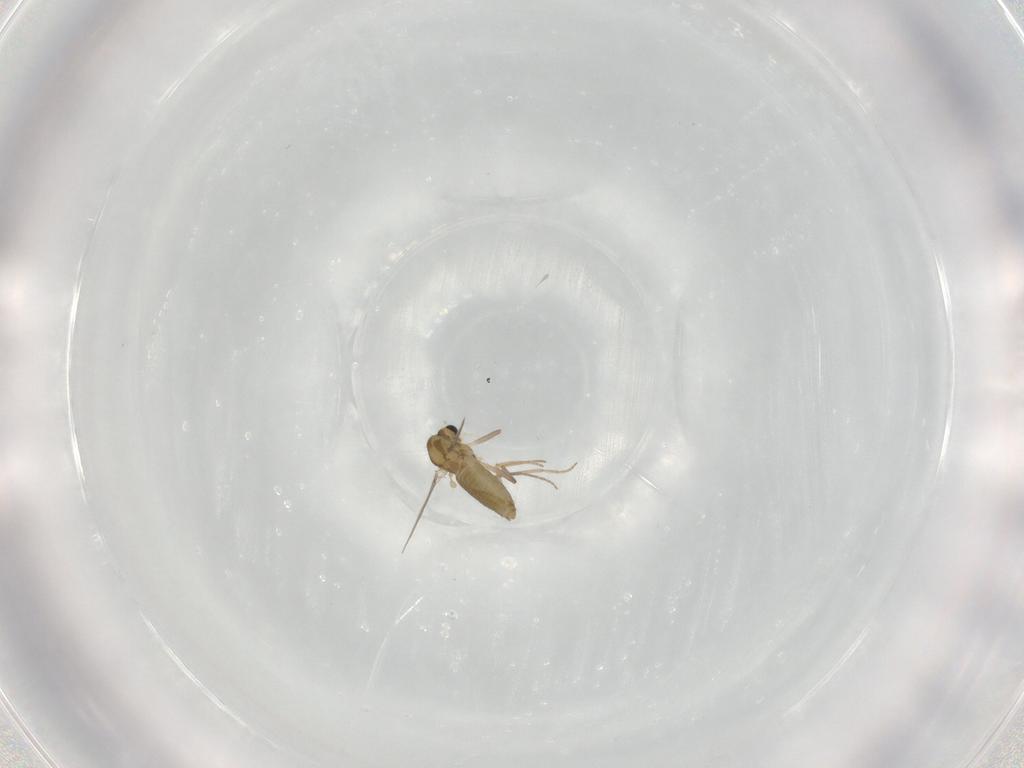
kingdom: Animalia
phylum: Arthropoda
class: Insecta
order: Diptera
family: Chironomidae
